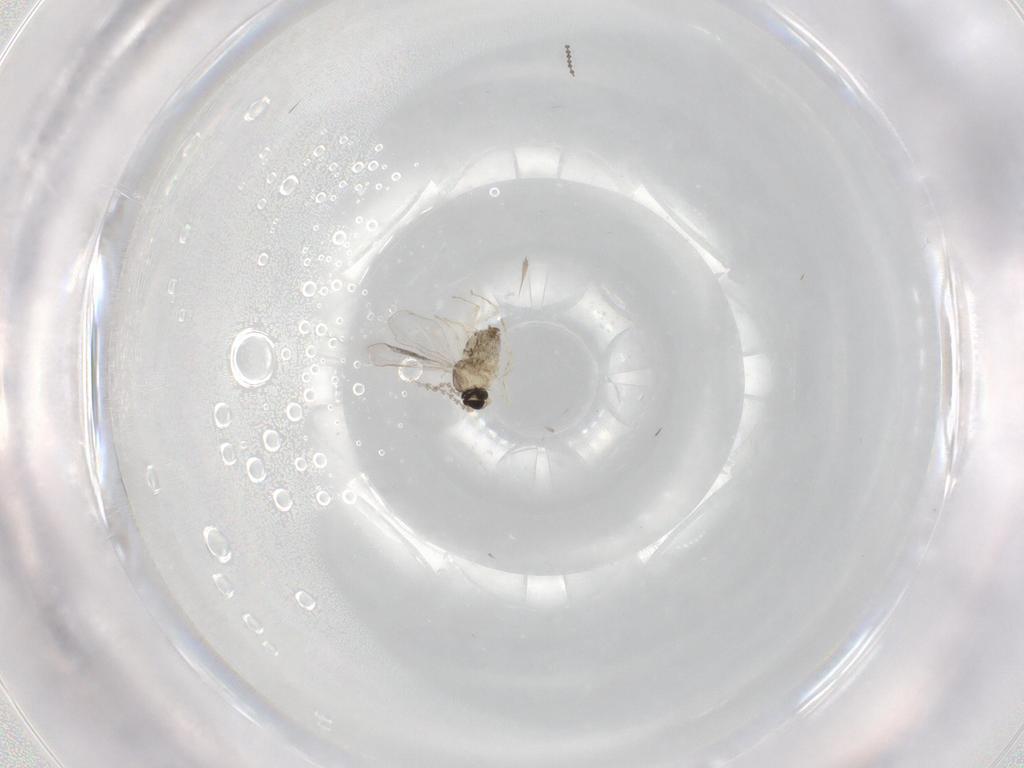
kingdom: Animalia
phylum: Arthropoda
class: Insecta
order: Diptera
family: Cecidomyiidae
